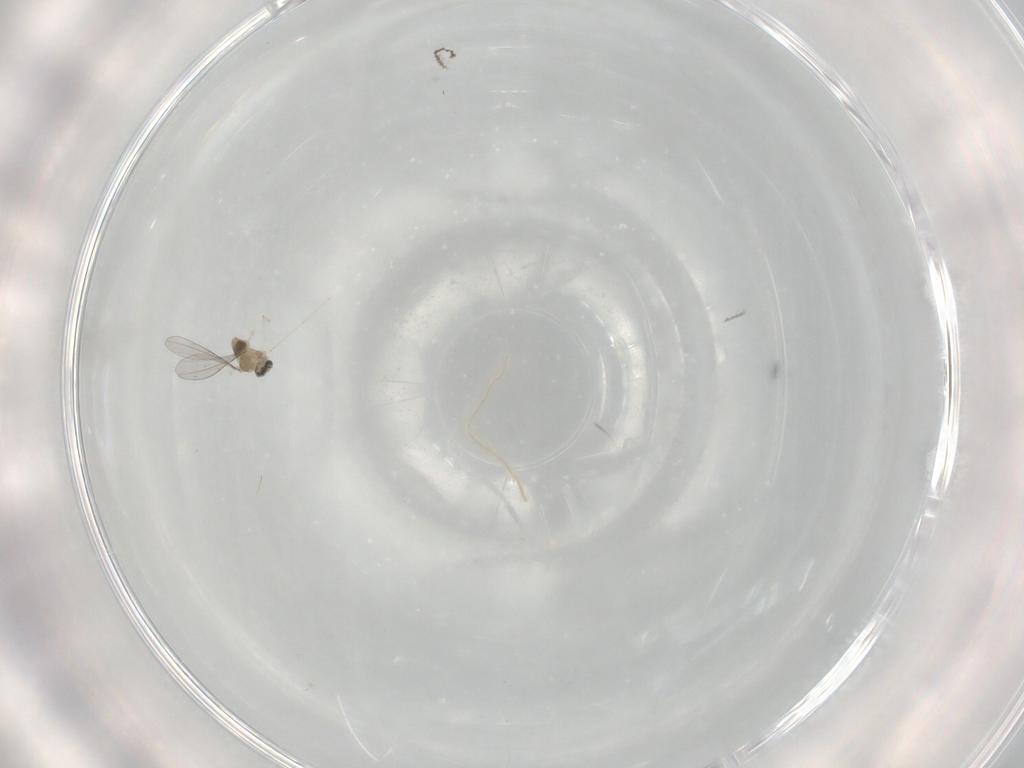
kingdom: Animalia
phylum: Arthropoda
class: Insecta
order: Diptera
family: Cecidomyiidae
